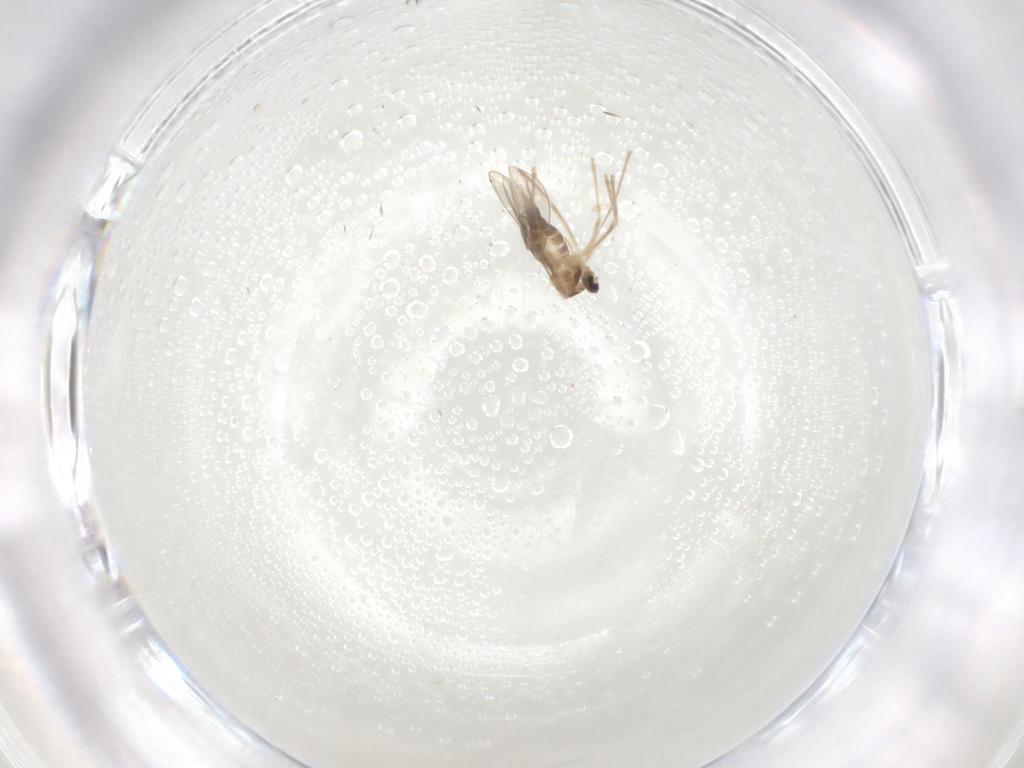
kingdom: Animalia
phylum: Arthropoda
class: Insecta
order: Diptera
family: Cecidomyiidae
